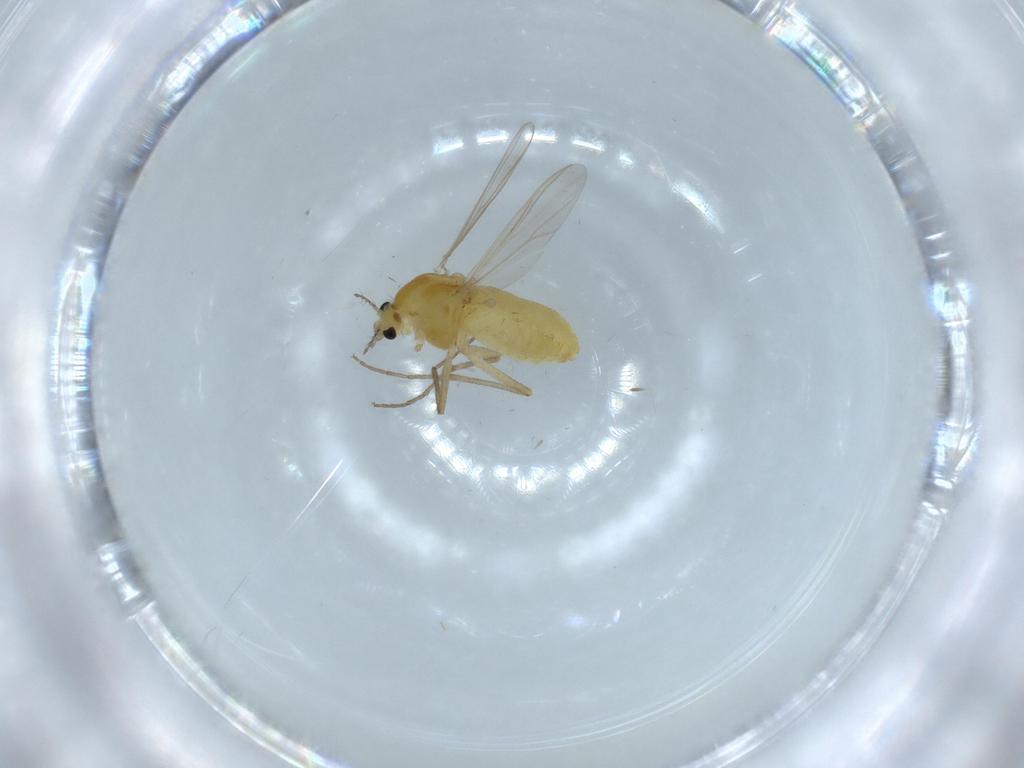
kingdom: Animalia
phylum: Arthropoda
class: Insecta
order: Diptera
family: Chironomidae
